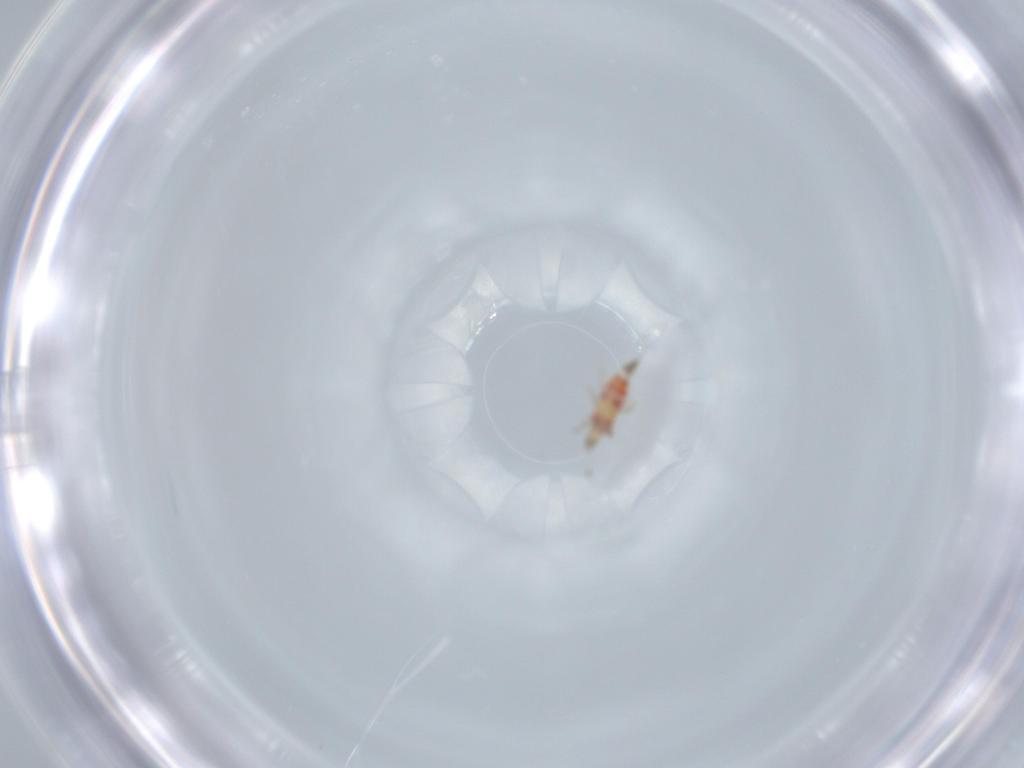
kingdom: Animalia
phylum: Arthropoda
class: Insecta
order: Thysanoptera
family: Phlaeothripidae
